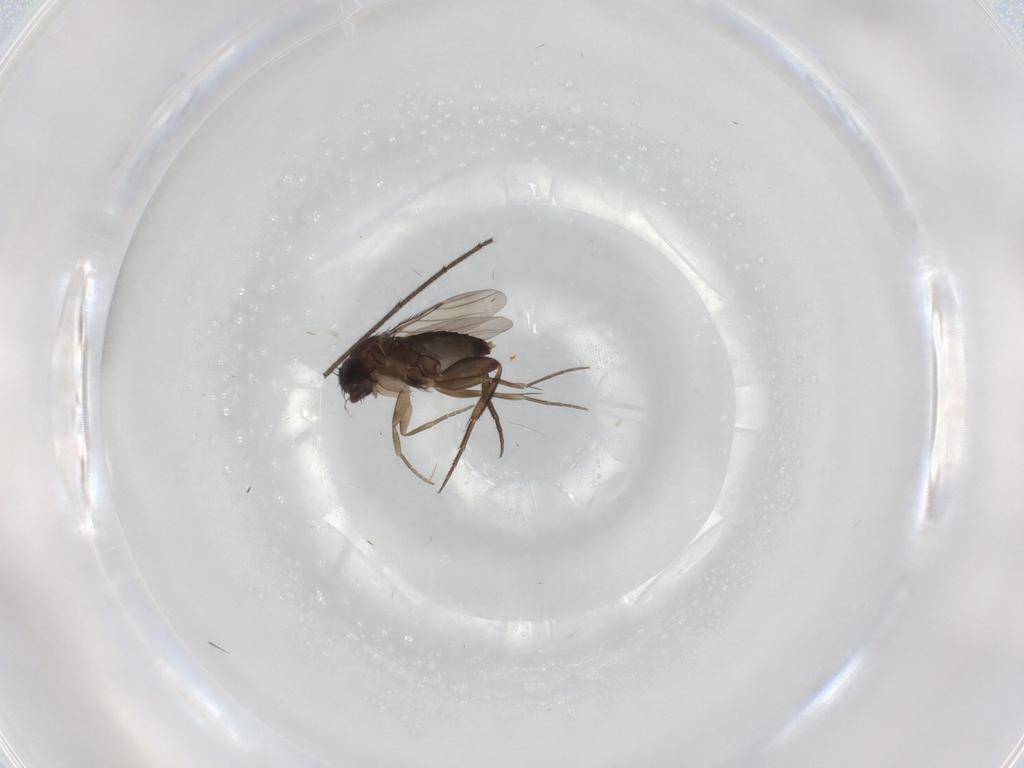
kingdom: Animalia
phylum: Arthropoda
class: Insecta
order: Diptera
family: Phoridae
